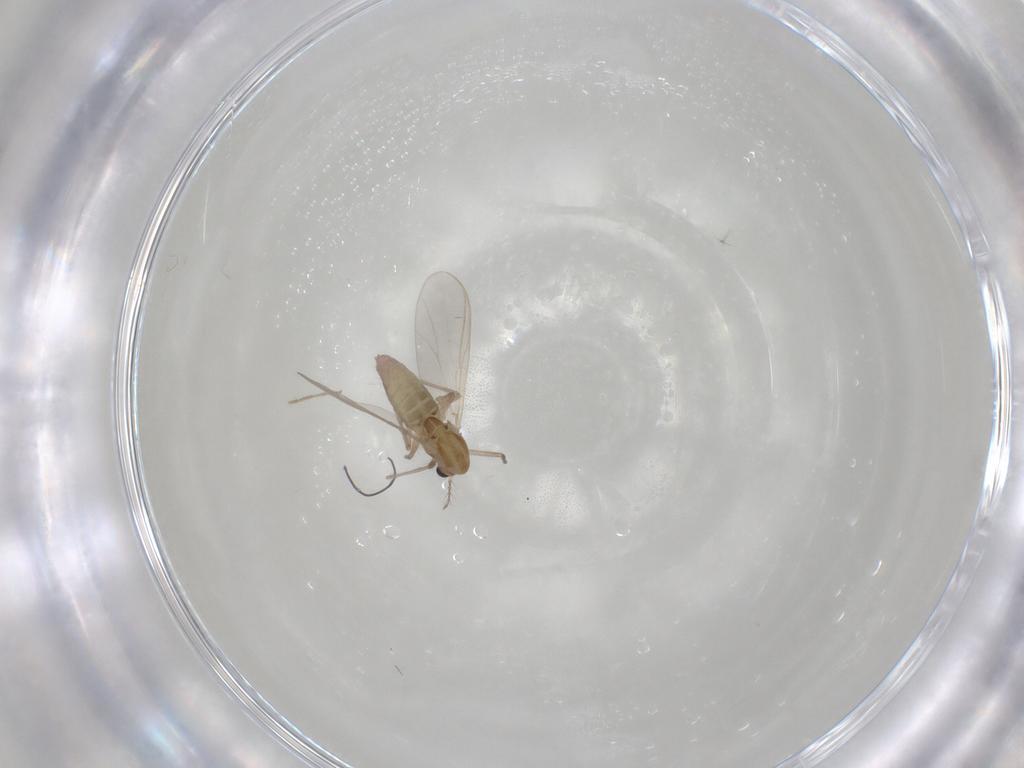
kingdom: Animalia
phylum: Arthropoda
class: Insecta
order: Diptera
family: Chironomidae
